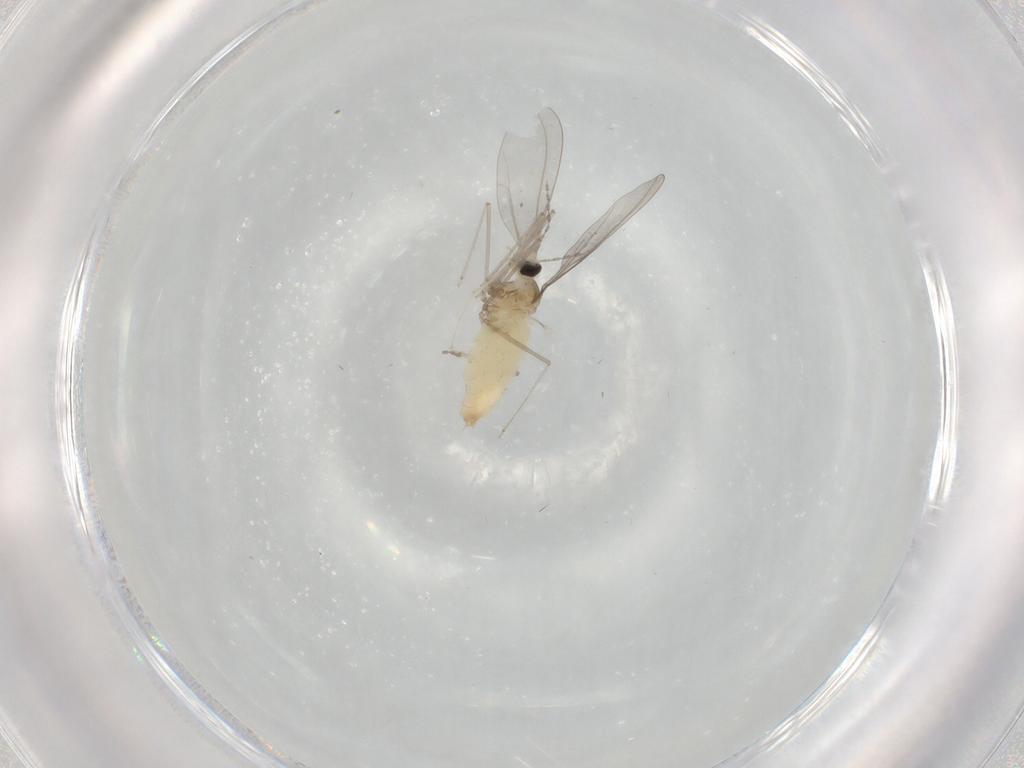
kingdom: Animalia
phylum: Arthropoda
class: Insecta
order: Diptera
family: Cecidomyiidae
